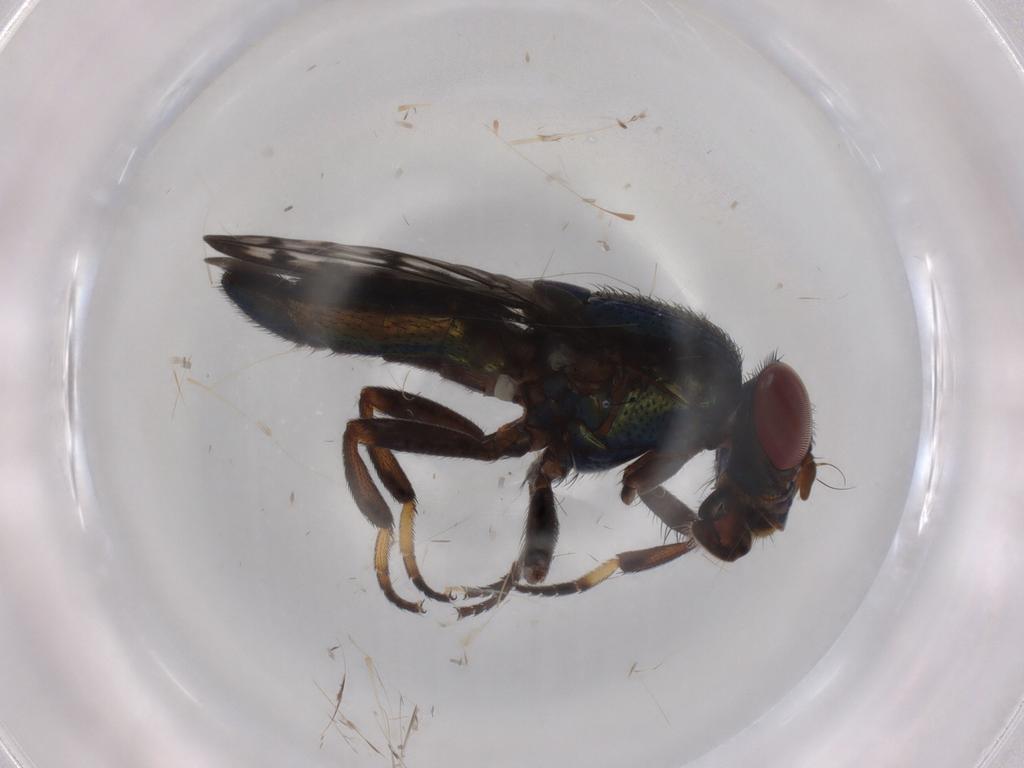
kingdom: Animalia
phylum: Arthropoda
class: Insecta
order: Diptera
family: Ulidiidae
